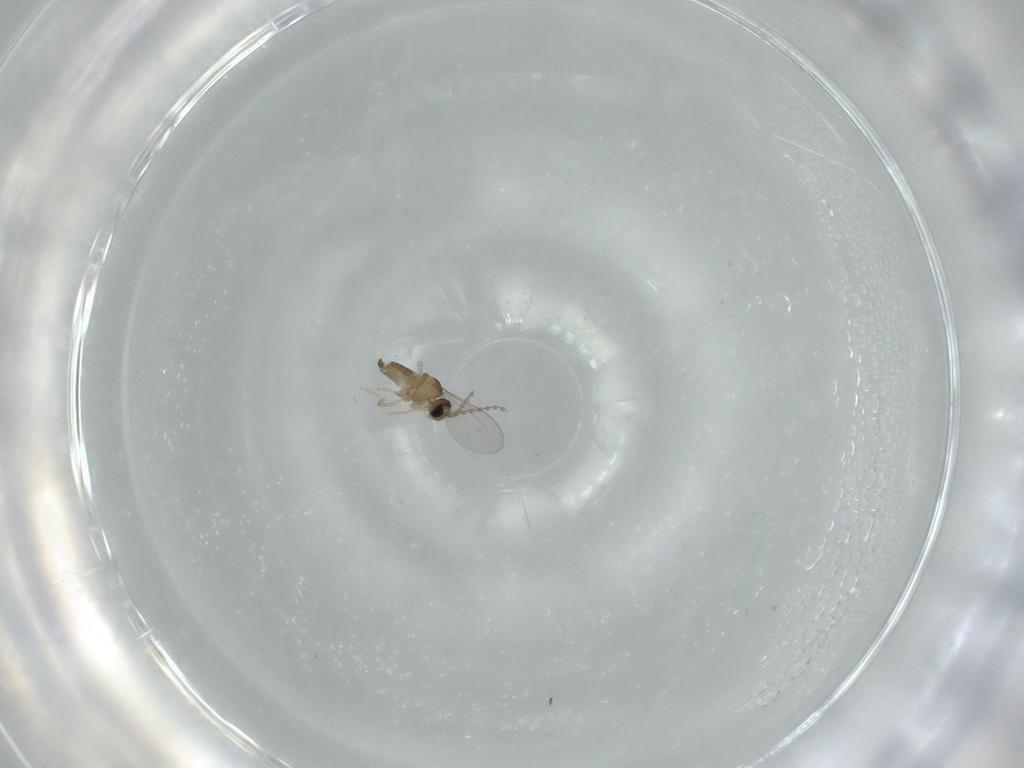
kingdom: Animalia
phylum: Arthropoda
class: Insecta
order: Diptera
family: Cecidomyiidae
